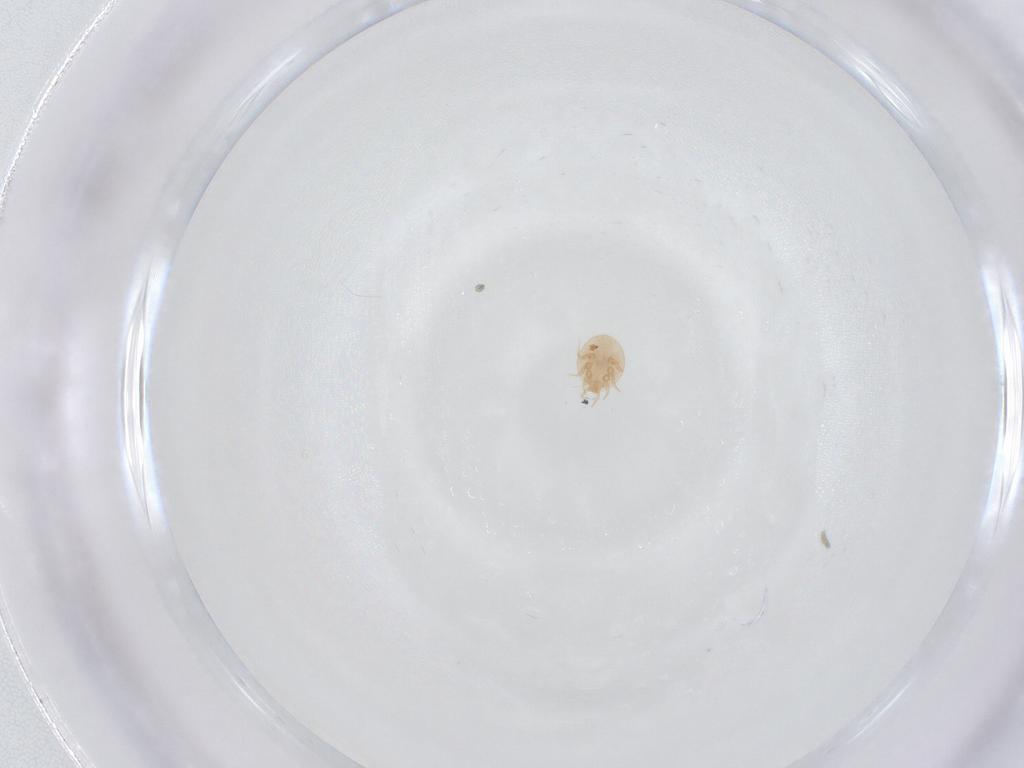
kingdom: Animalia
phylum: Arthropoda
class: Arachnida
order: Mesostigmata
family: Trematuridae
